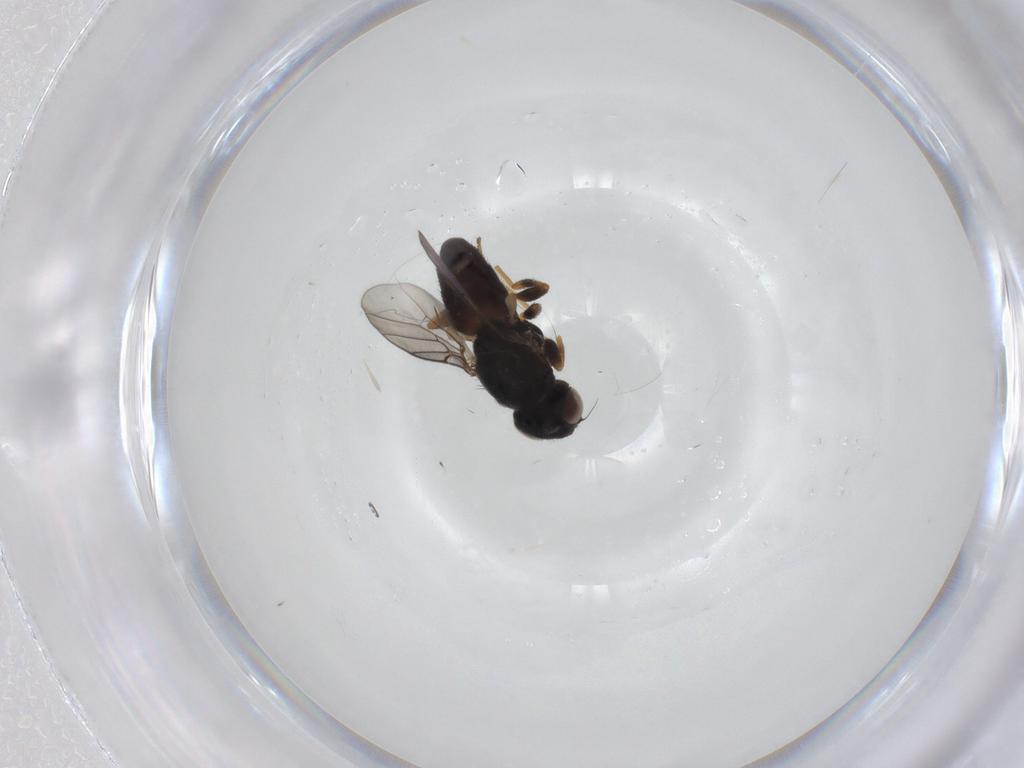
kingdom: Animalia
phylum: Arthropoda
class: Insecta
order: Diptera
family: Chloropidae
